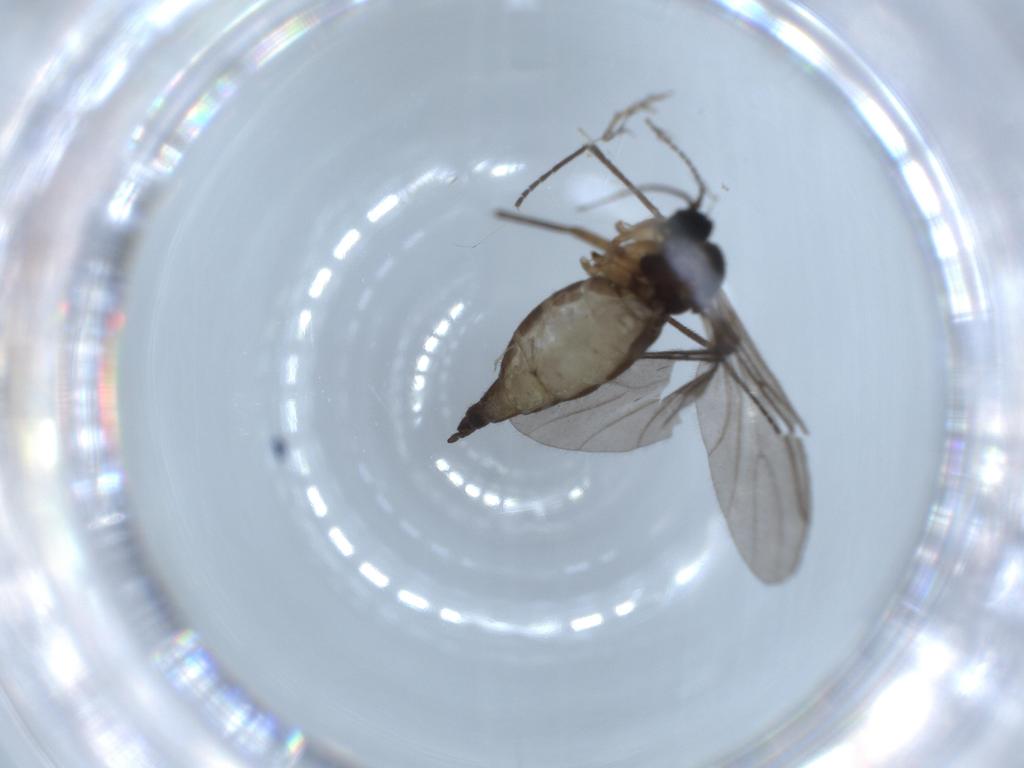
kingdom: Animalia
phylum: Arthropoda
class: Insecta
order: Diptera
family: Sciaridae
